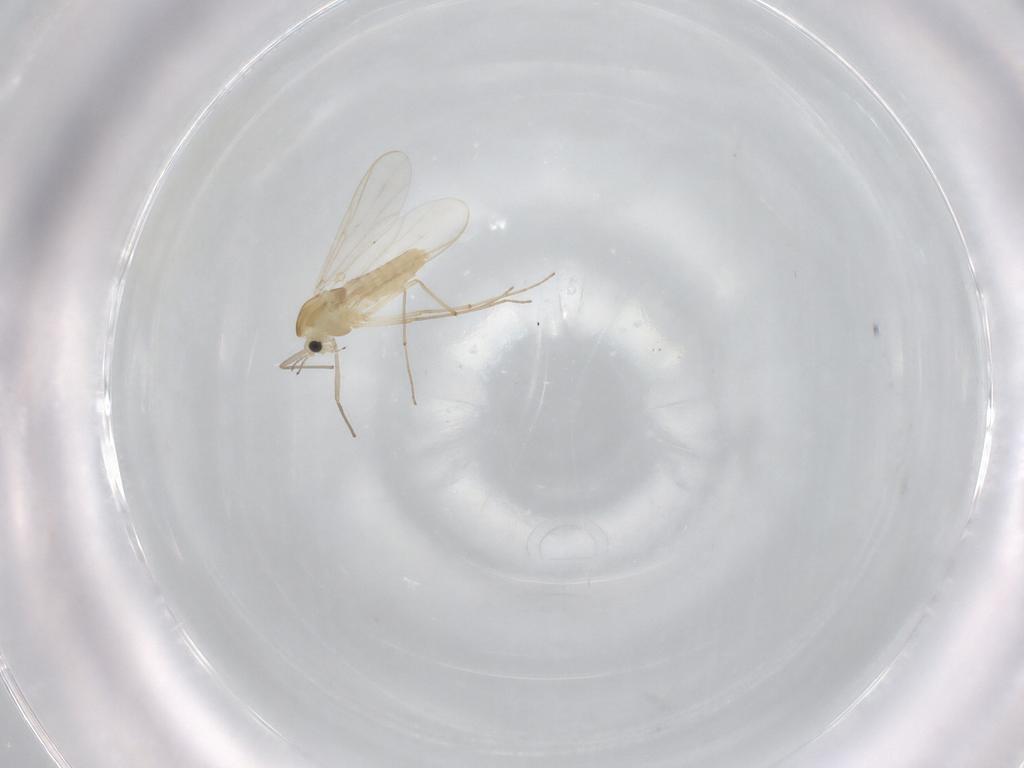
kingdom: Animalia
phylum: Arthropoda
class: Insecta
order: Diptera
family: Chironomidae
